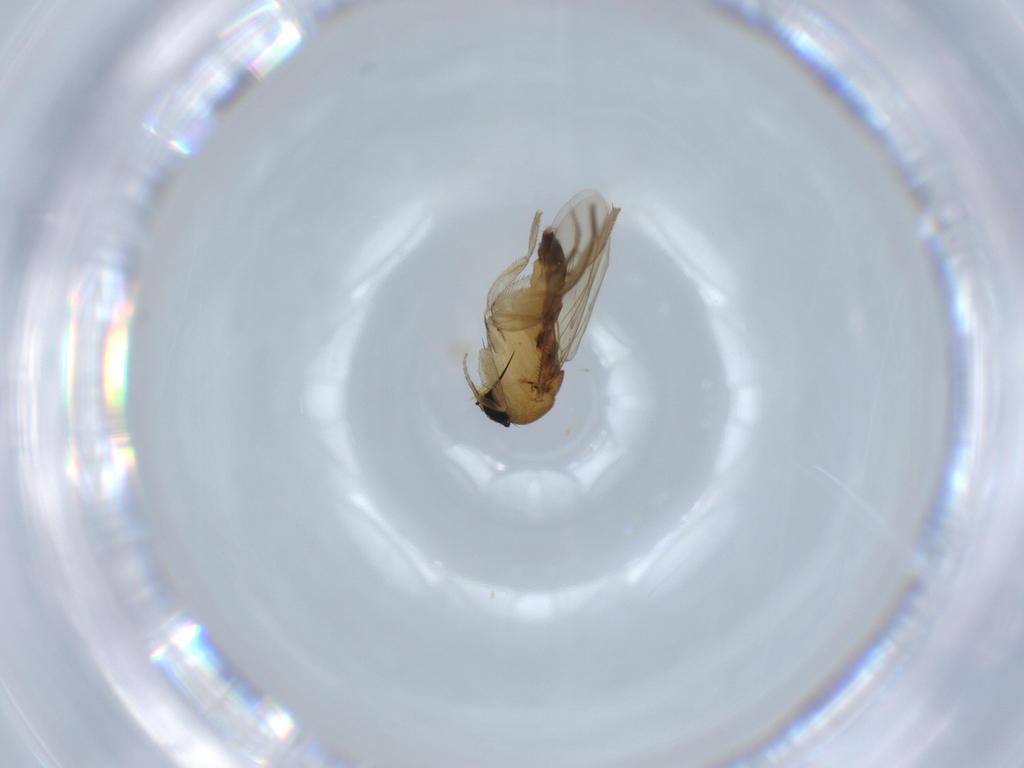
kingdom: Animalia
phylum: Arthropoda
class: Insecta
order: Diptera
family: Phoridae
